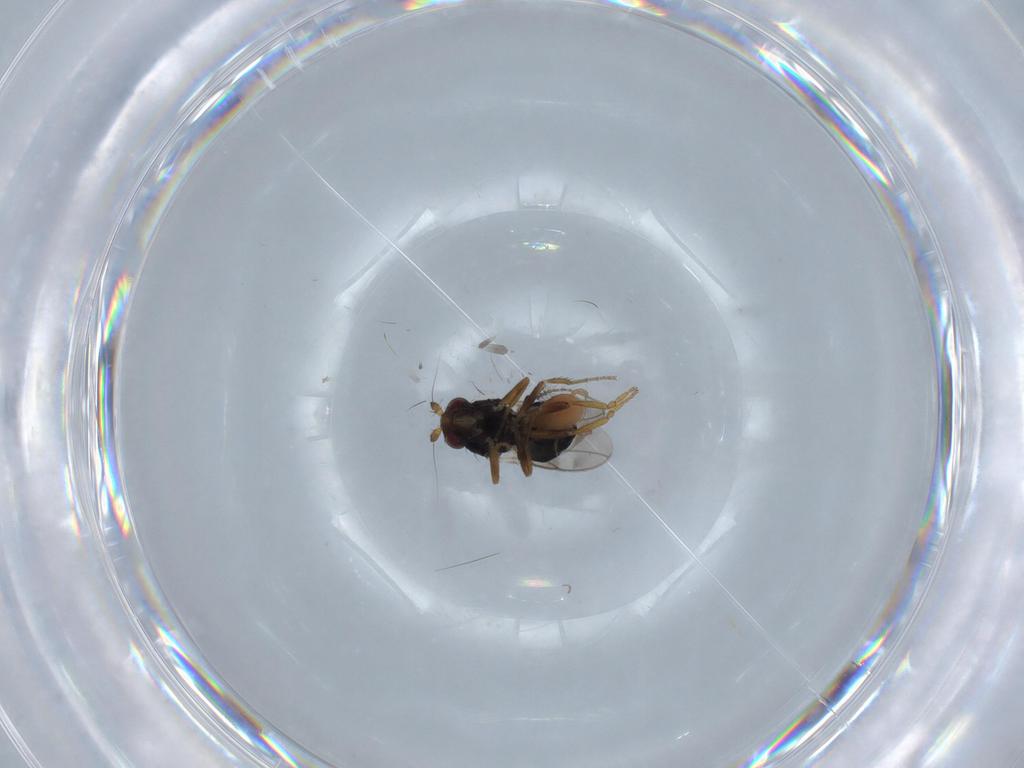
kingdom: Animalia
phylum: Arthropoda
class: Insecta
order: Diptera
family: Sphaeroceridae
